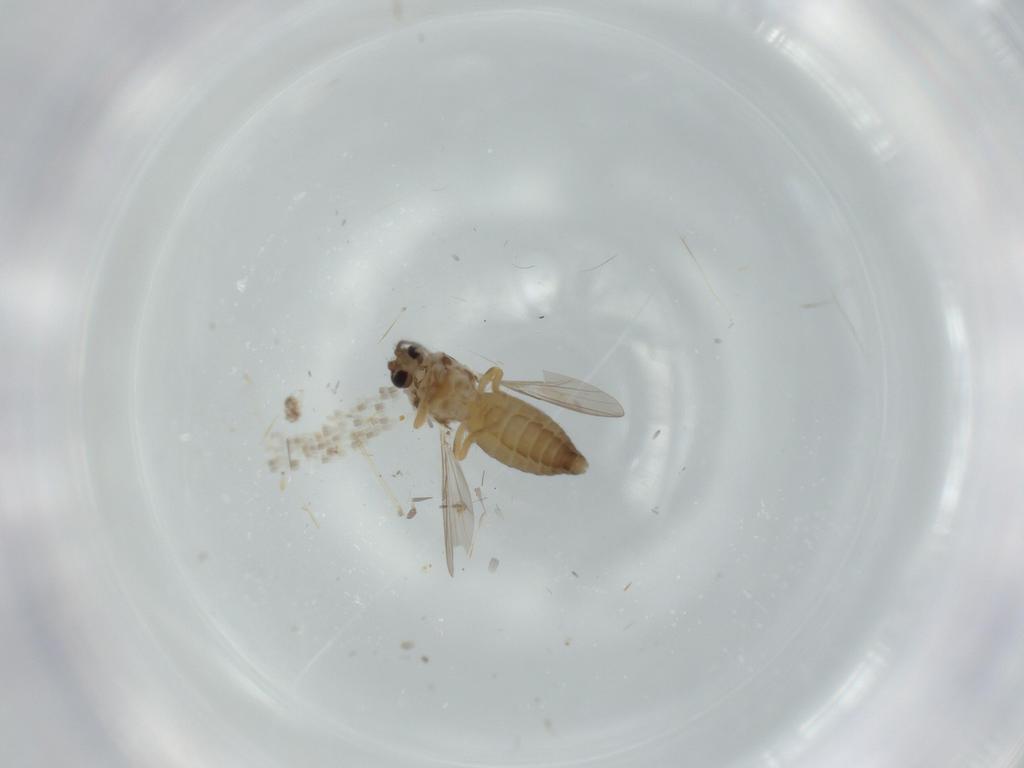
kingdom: Animalia
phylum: Arthropoda
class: Insecta
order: Diptera
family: Ceratopogonidae
